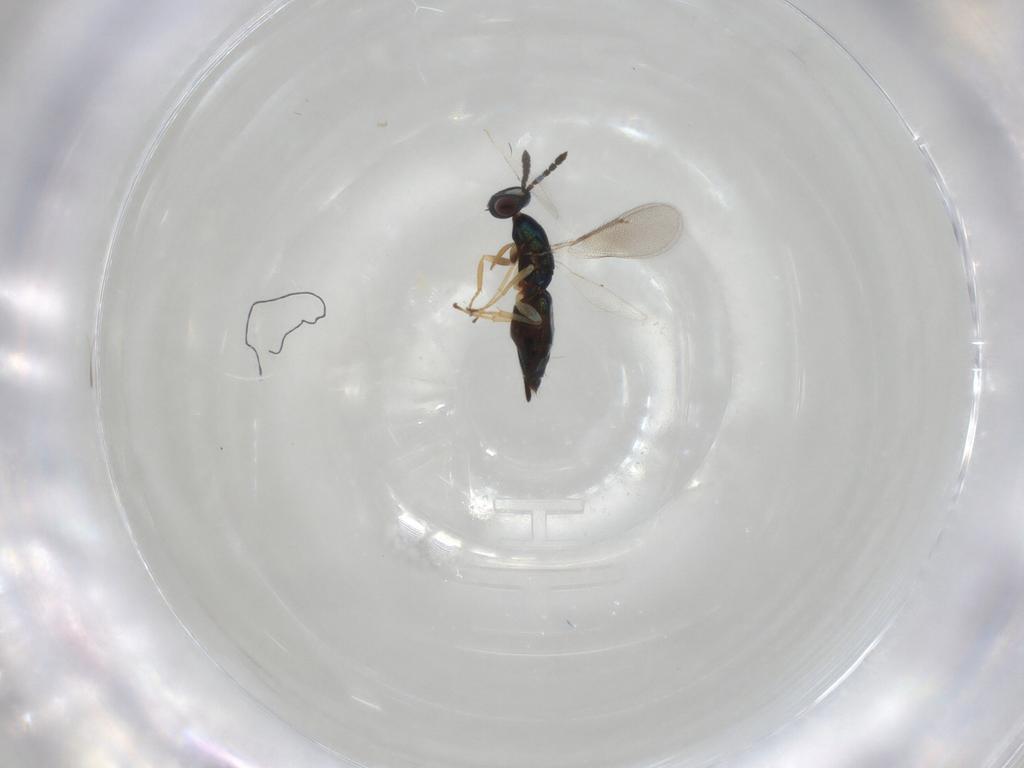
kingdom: Animalia
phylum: Arthropoda
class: Insecta
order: Hymenoptera
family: Eulophidae
